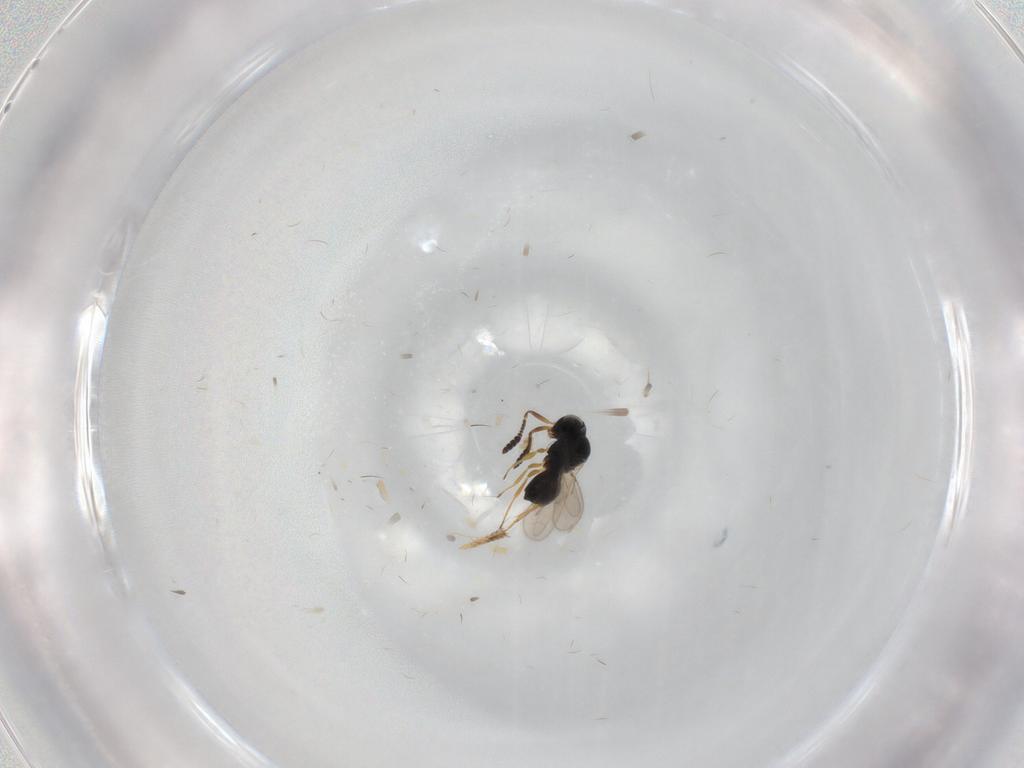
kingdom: Animalia
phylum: Arthropoda
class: Insecta
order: Hymenoptera
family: Scelionidae
